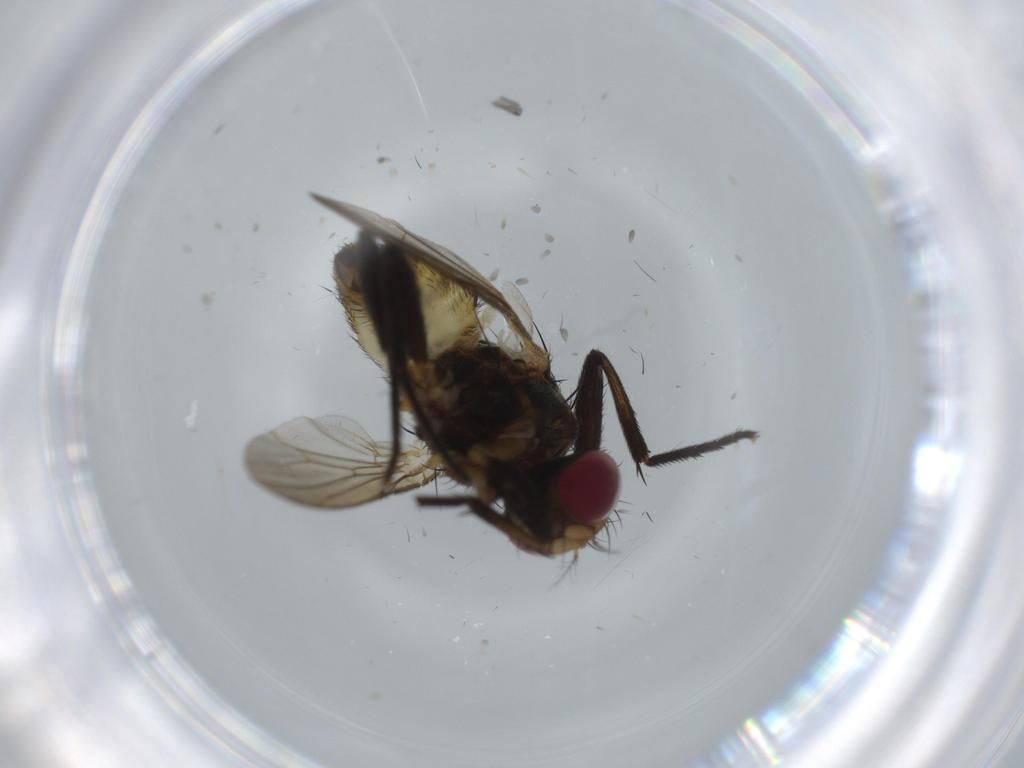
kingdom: Animalia
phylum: Arthropoda
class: Insecta
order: Diptera
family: Anthomyiidae
